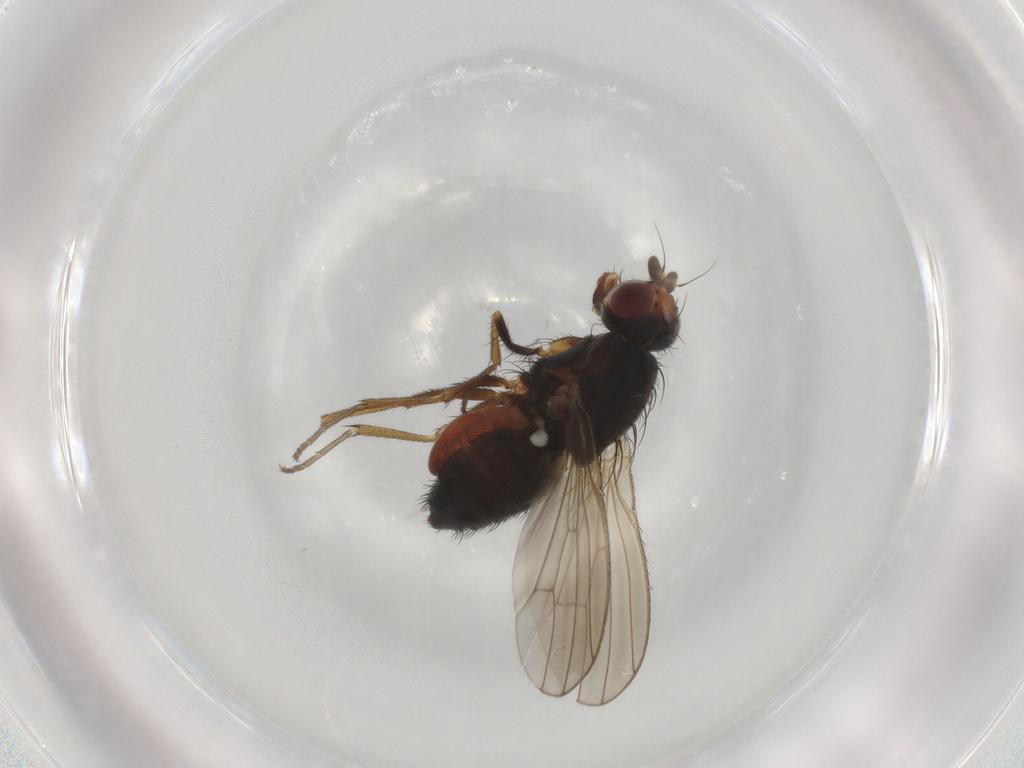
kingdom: Animalia
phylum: Arthropoda
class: Insecta
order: Diptera
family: Heleomyzidae
